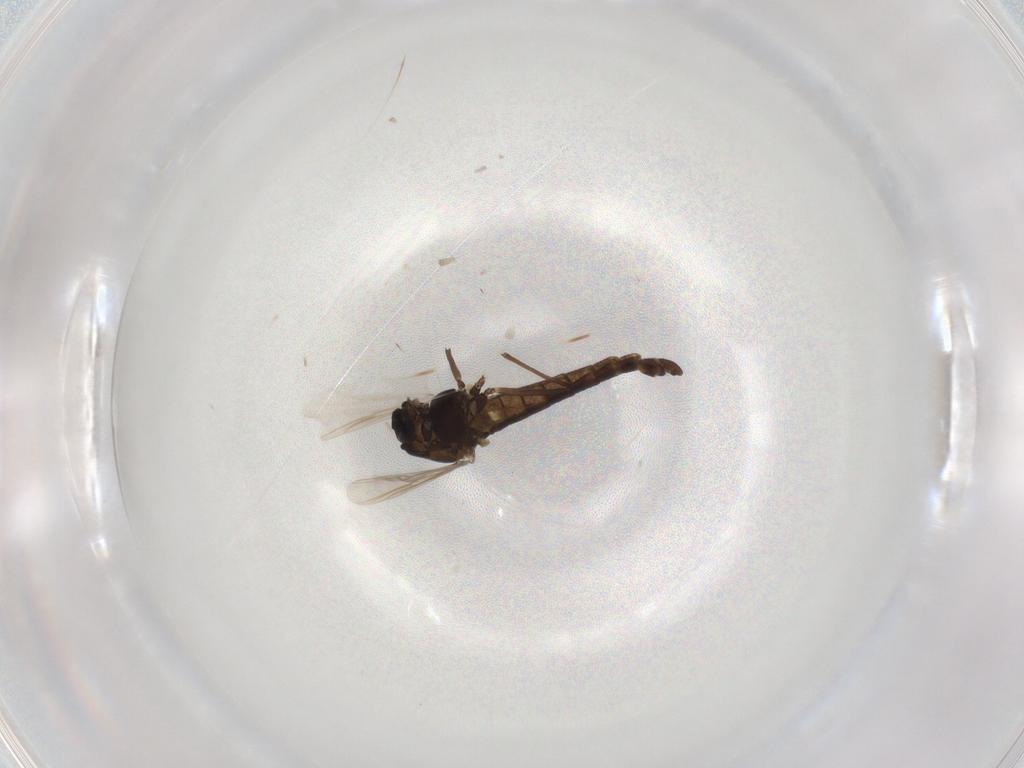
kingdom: Animalia
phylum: Arthropoda
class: Insecta
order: Diptera
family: Chironomidae
